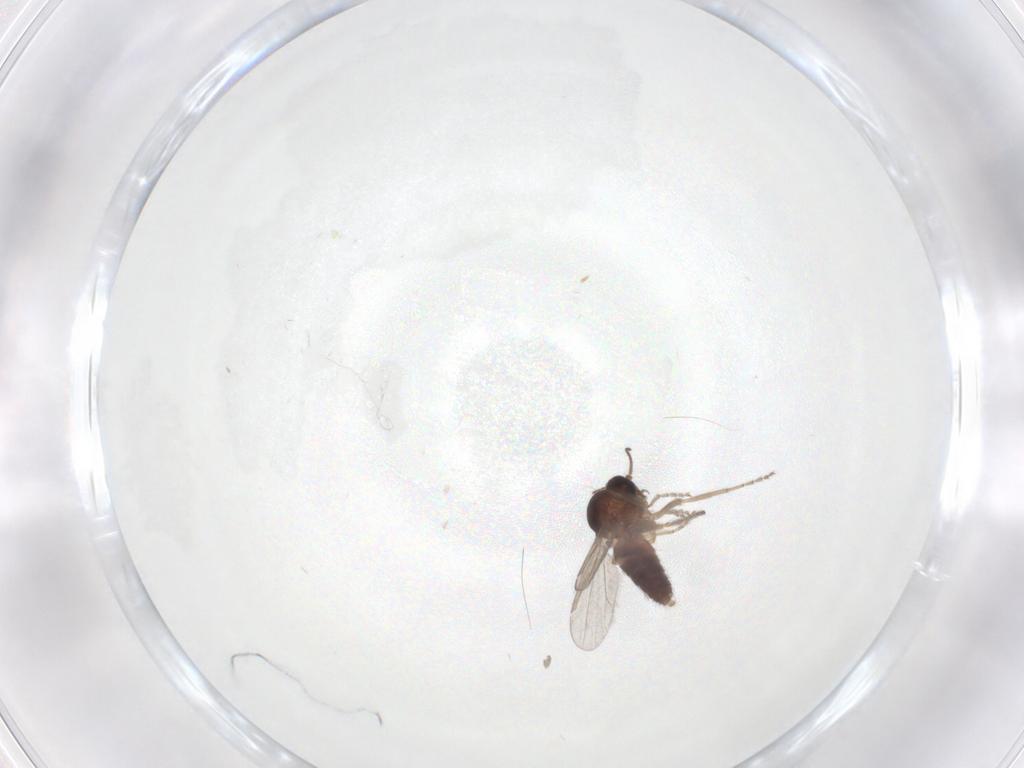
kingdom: Animalia
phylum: Arthropoda
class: Insecta
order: Diptera
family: Ceratopogonidae
